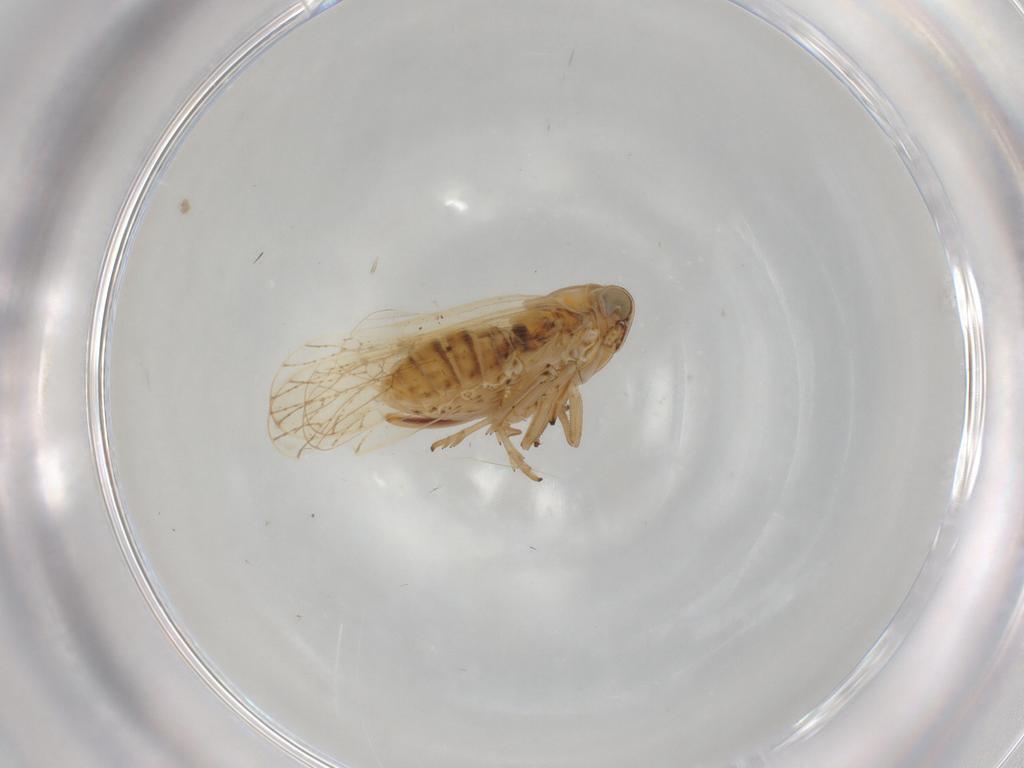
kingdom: Animalia
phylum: Arthropoda
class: Insecta
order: Hemiptera
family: Delphacidae
